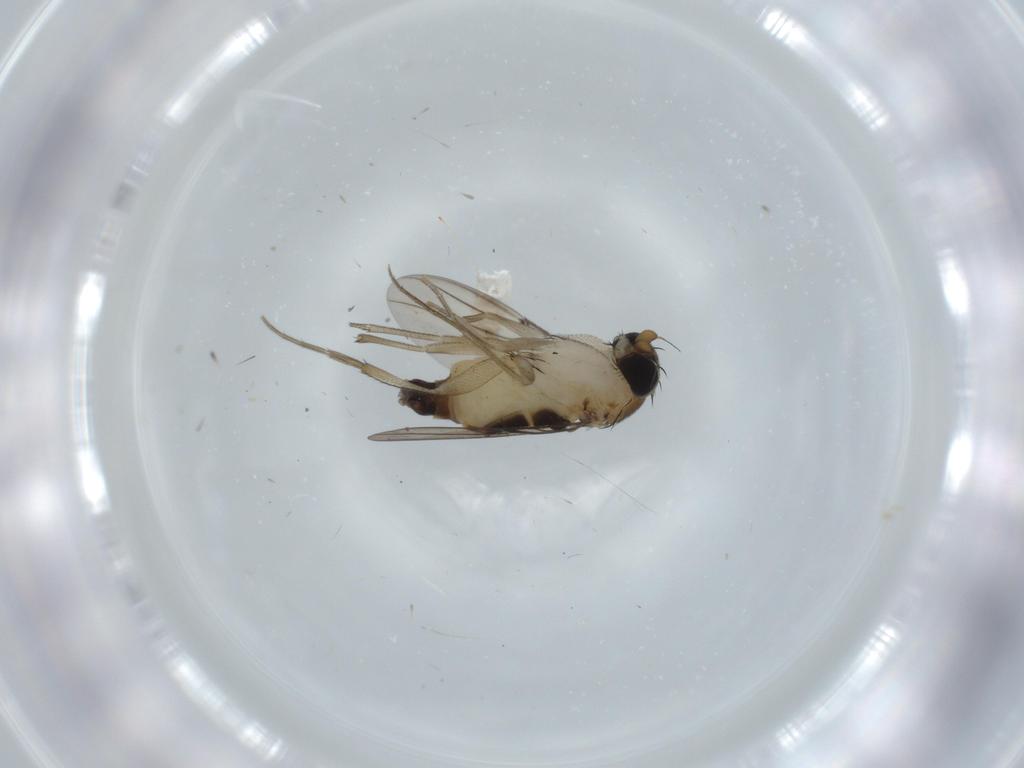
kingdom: Animalia
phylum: Arthropoda
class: Insecta
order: Diptera
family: Phoridae
